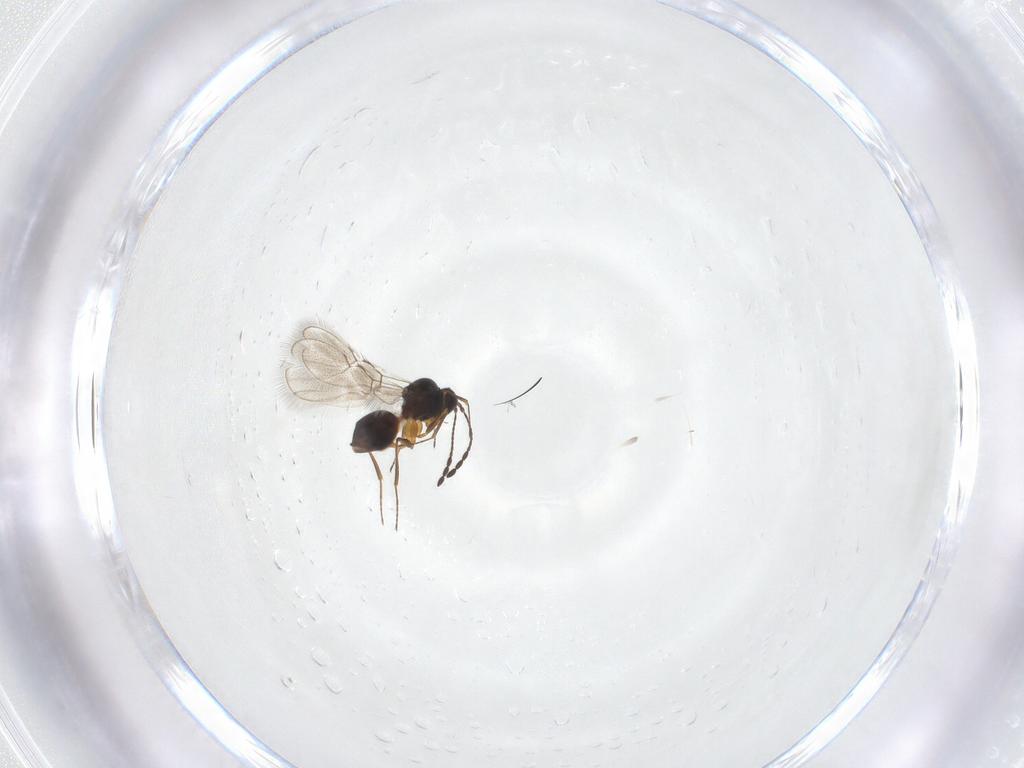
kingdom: Animalia
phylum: Arthropoda
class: Insecta
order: Hymenoptera
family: Figitidae
